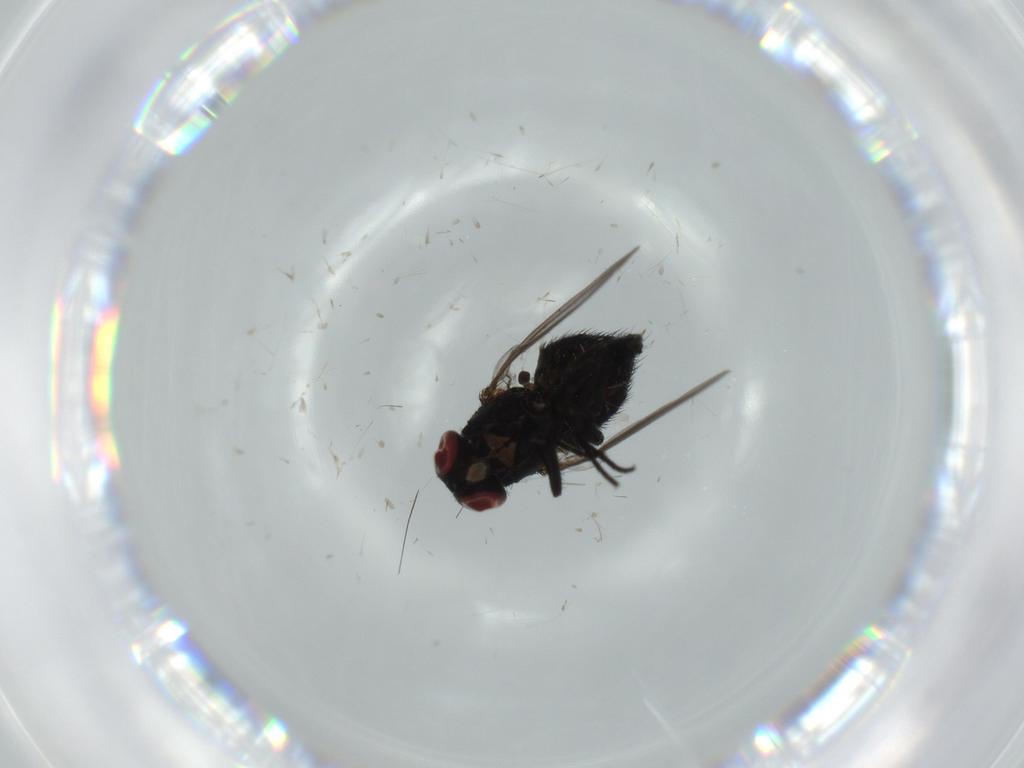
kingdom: Animalia
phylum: Arthropoda
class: Insecta
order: Diptera
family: Agromyzidae
